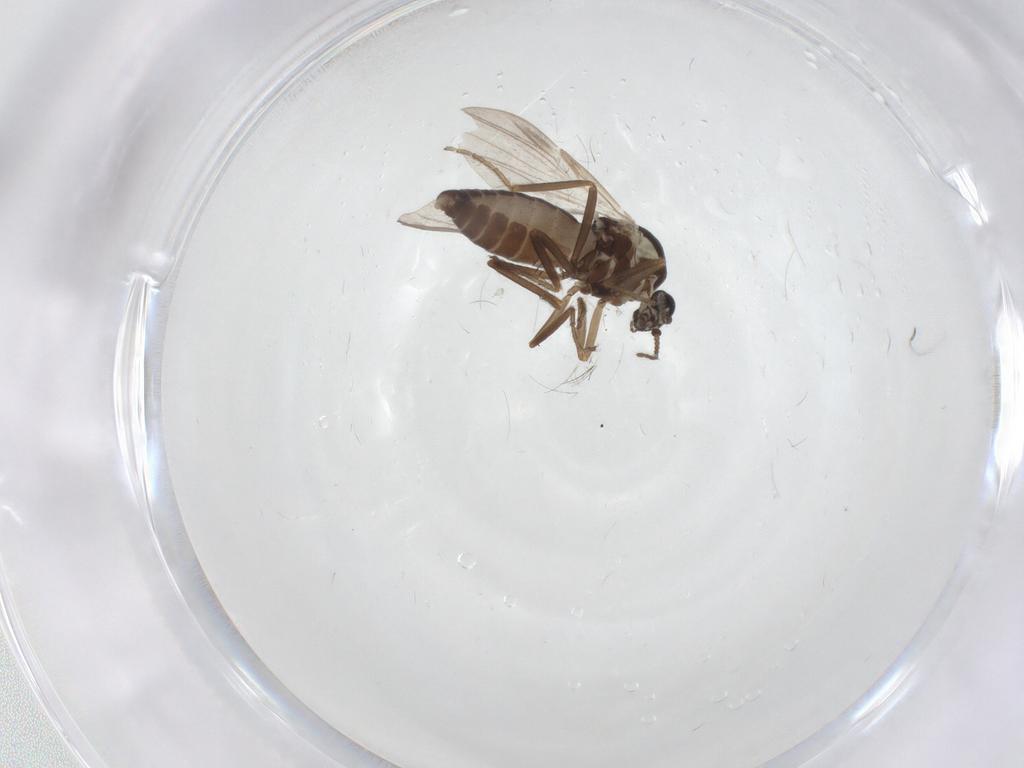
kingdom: Animalia
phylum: Arthropoda
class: Insecta
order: Diptera
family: Ceratopogonidae
